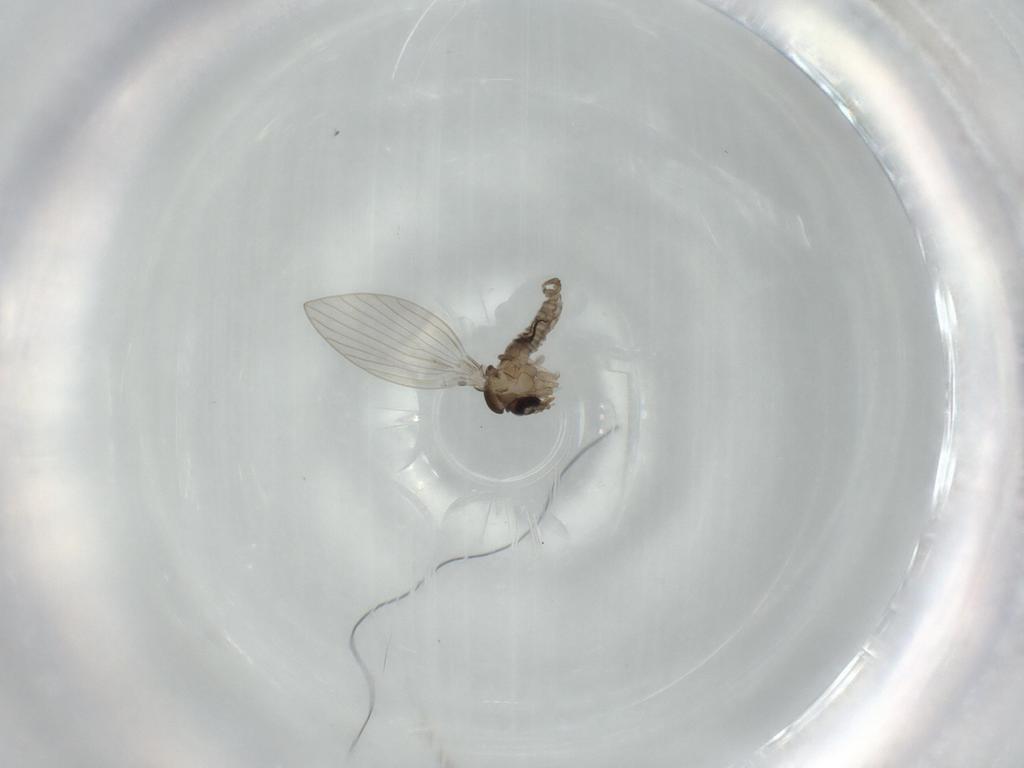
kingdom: Animalia
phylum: Arthropoda
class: Insecta
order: Diptera
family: Psychodidae
